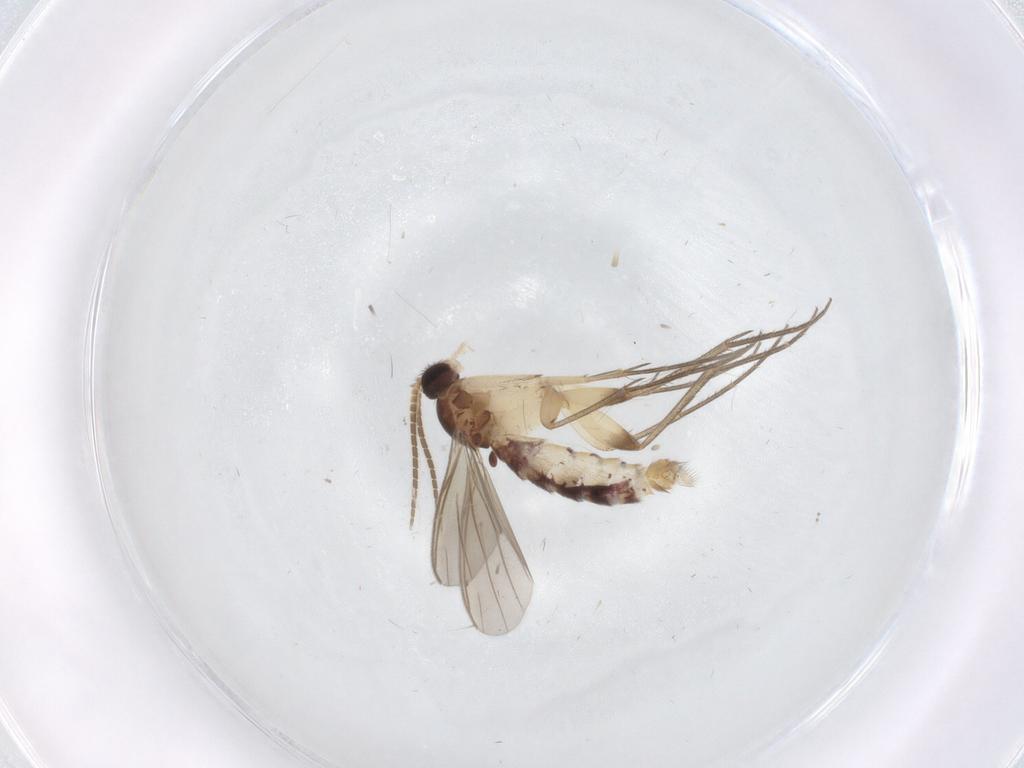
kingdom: Animalia
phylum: Arthropoda
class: Insecta
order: Diptera
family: Mycetophilidae
